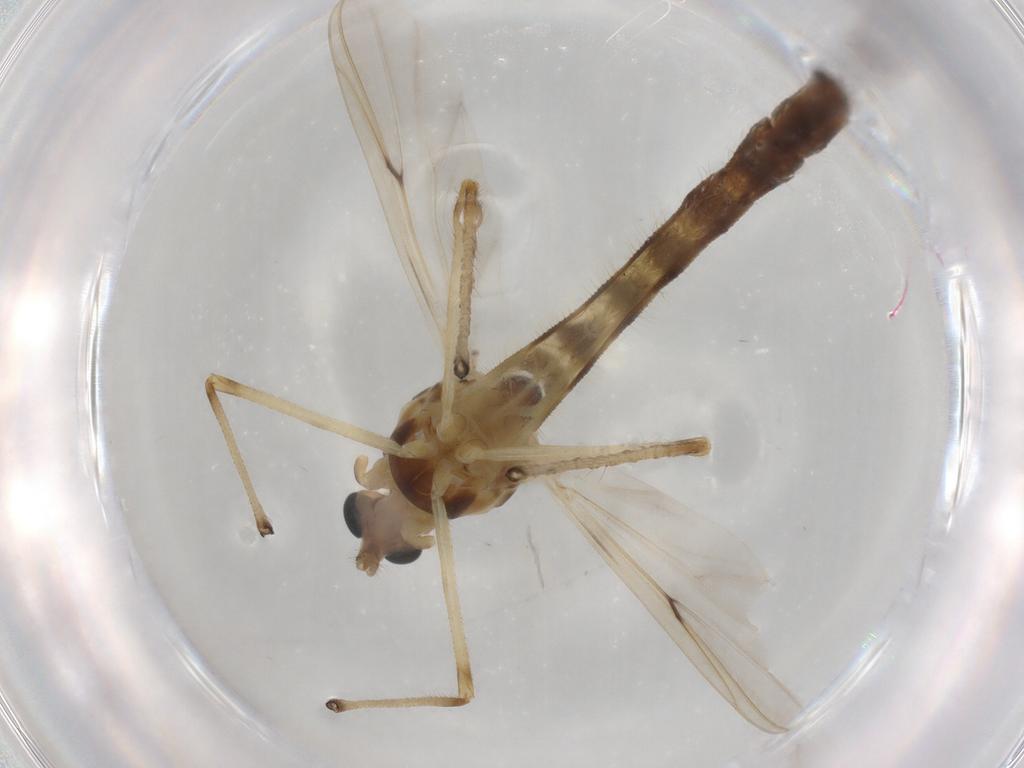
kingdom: Animalia
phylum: Arthropoda
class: Insecta
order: Diptera
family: Chironomidae
